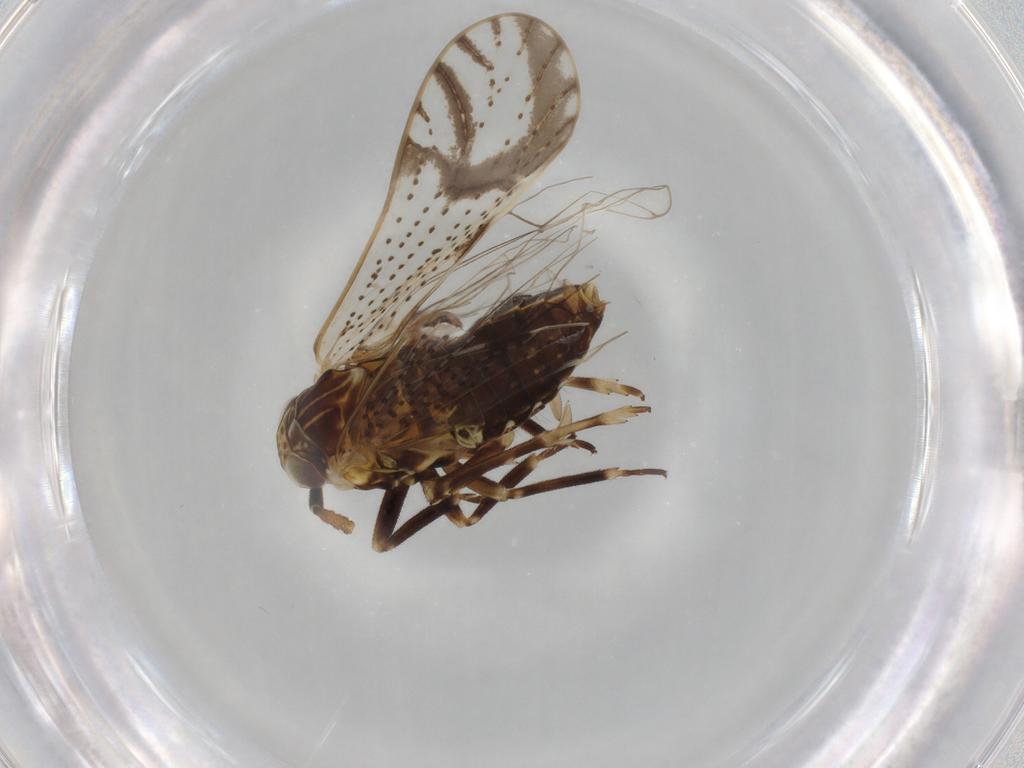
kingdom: Animalia
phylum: Arthropoda
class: Insecta
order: Hemiptera
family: Delphacidae
